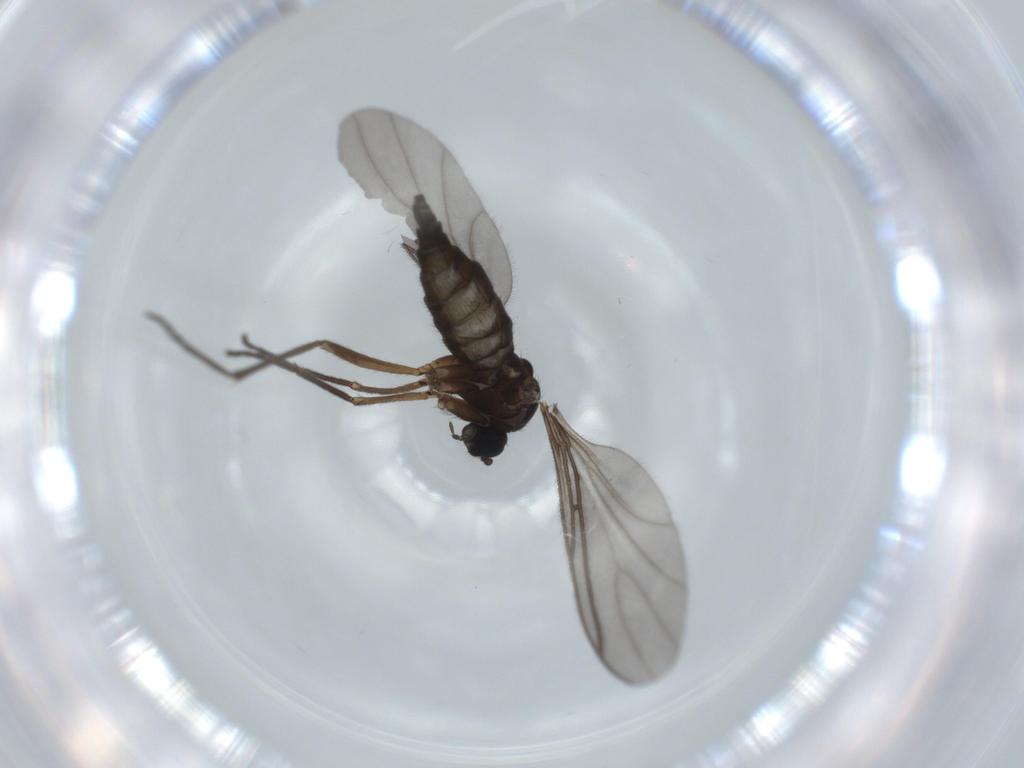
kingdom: Animalia
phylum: Arthropoda
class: Insecta
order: Diptera
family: Sciaridae
